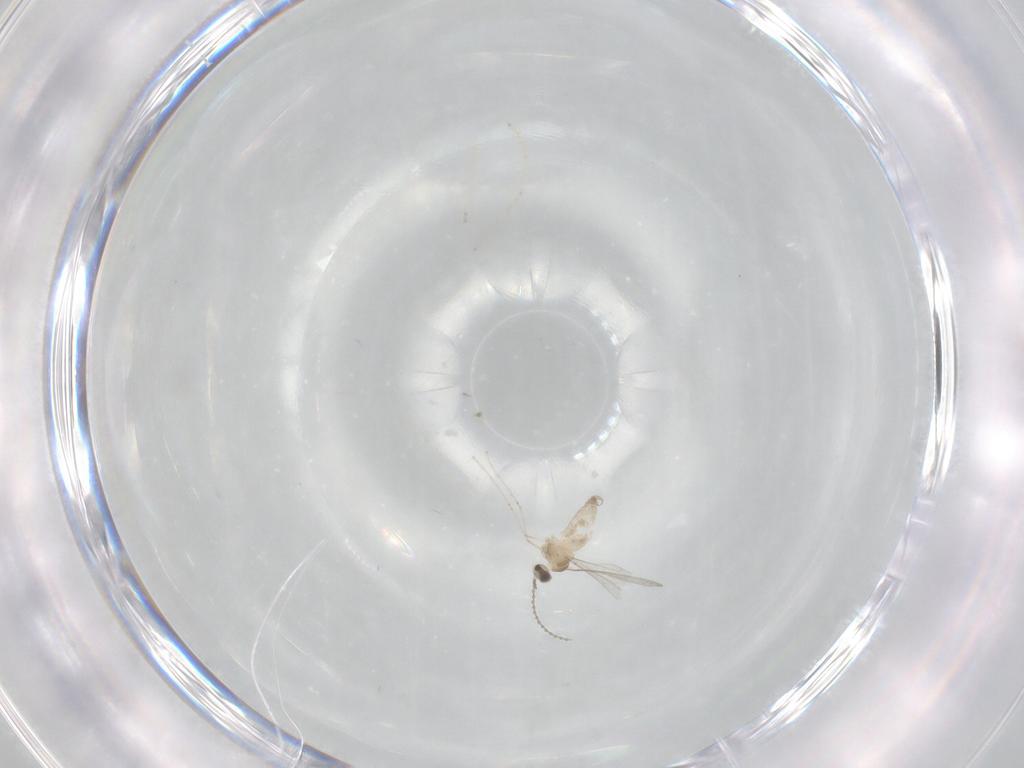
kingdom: Animalia
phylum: Arthropoda
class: Insecta
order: Diptera
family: Cecidomyiidae
